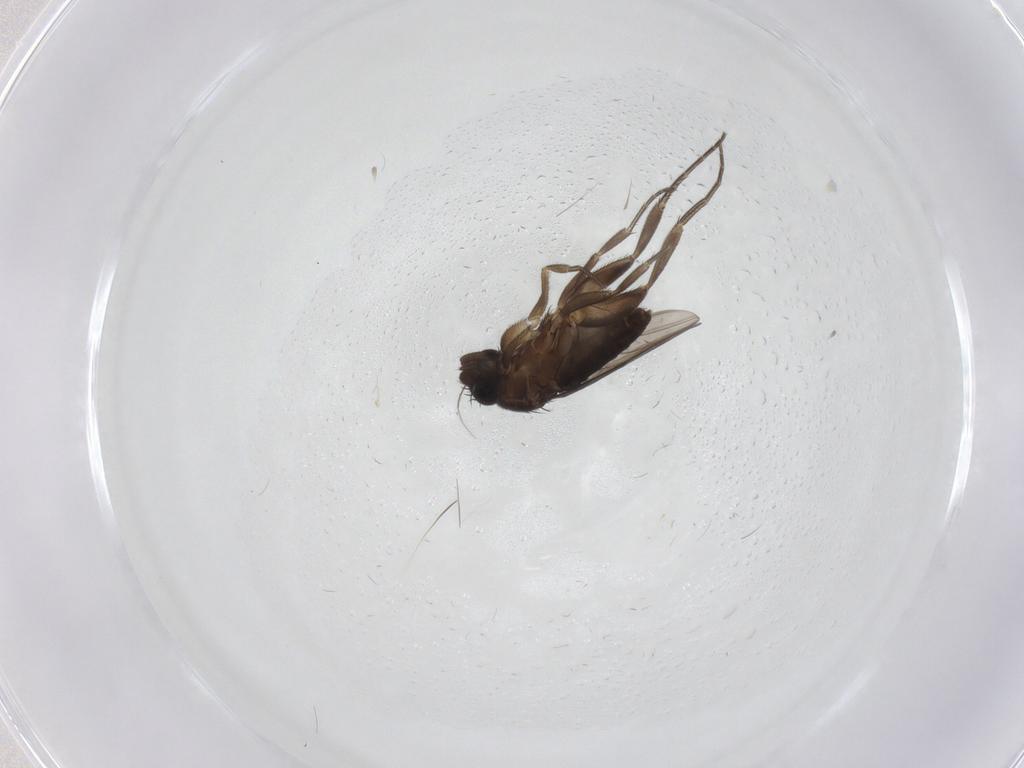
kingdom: Animalia
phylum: Arthropoda
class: Insecta
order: Diptera
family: Phoridae
